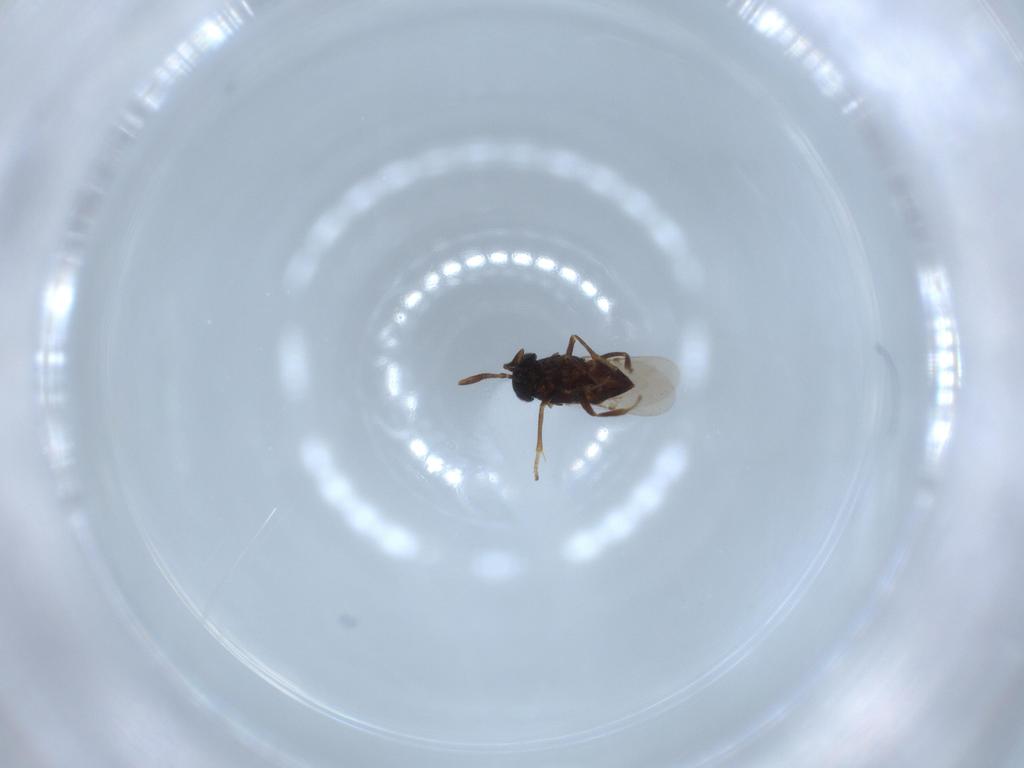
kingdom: Animalia
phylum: Arthropoda
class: Insecta
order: Hymenoptera
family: Encyrtidae
